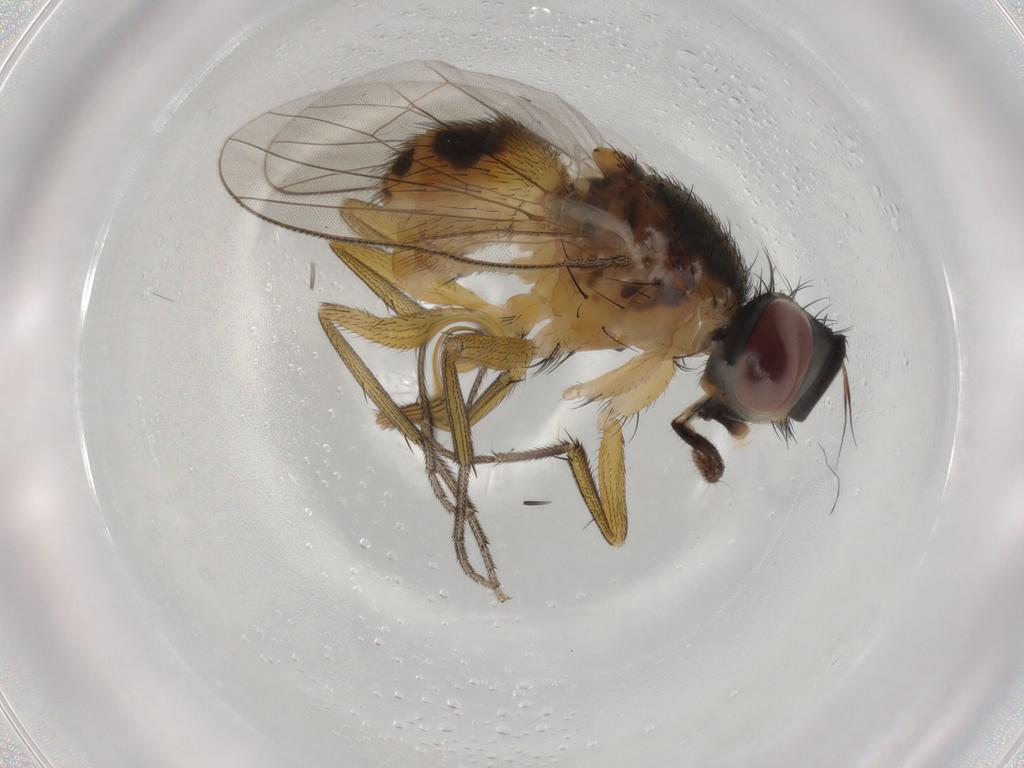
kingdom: Animalia
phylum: Arthropoda
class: Insecta
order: Diptera
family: Muscidae
